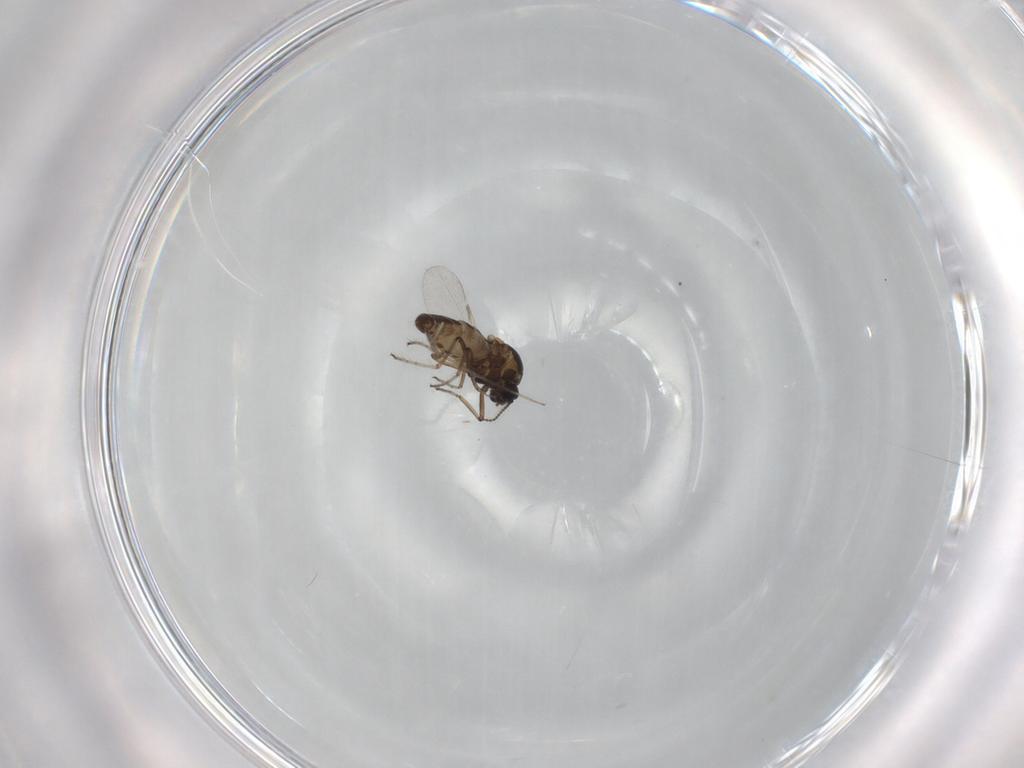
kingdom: Animalia
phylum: Arthropoda
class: Insecta
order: Diptera
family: Ceratopogonidae
